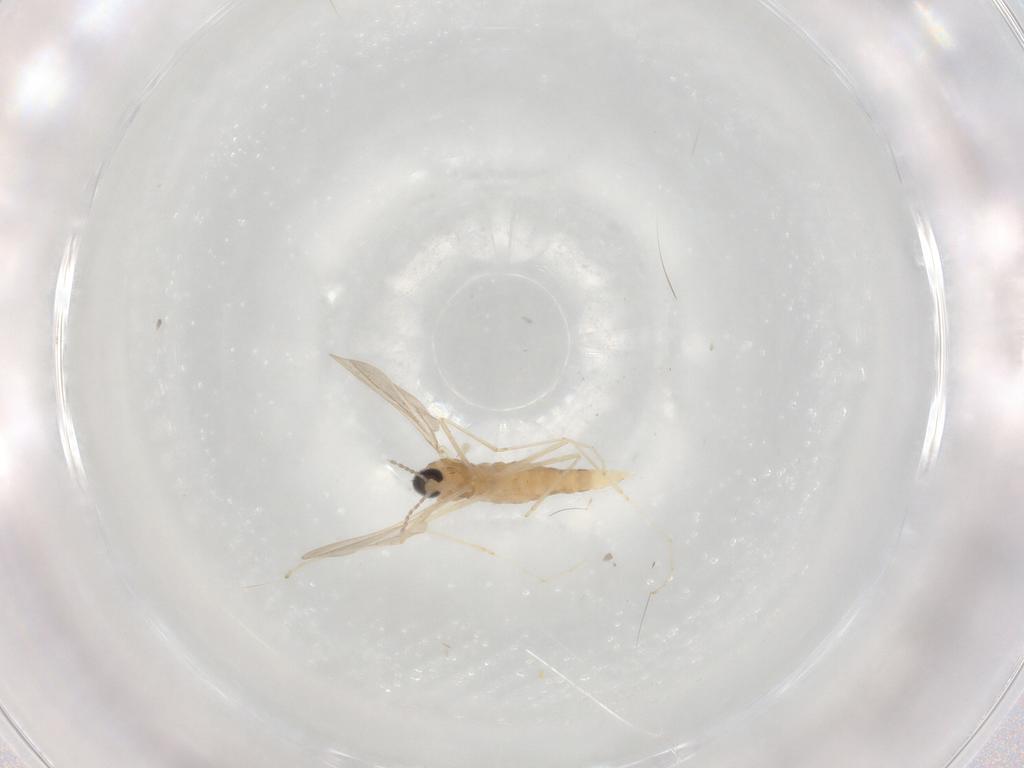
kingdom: Animalia
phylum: Arthropoda
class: Insecta
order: Diptera
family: Cecidomyiidae
